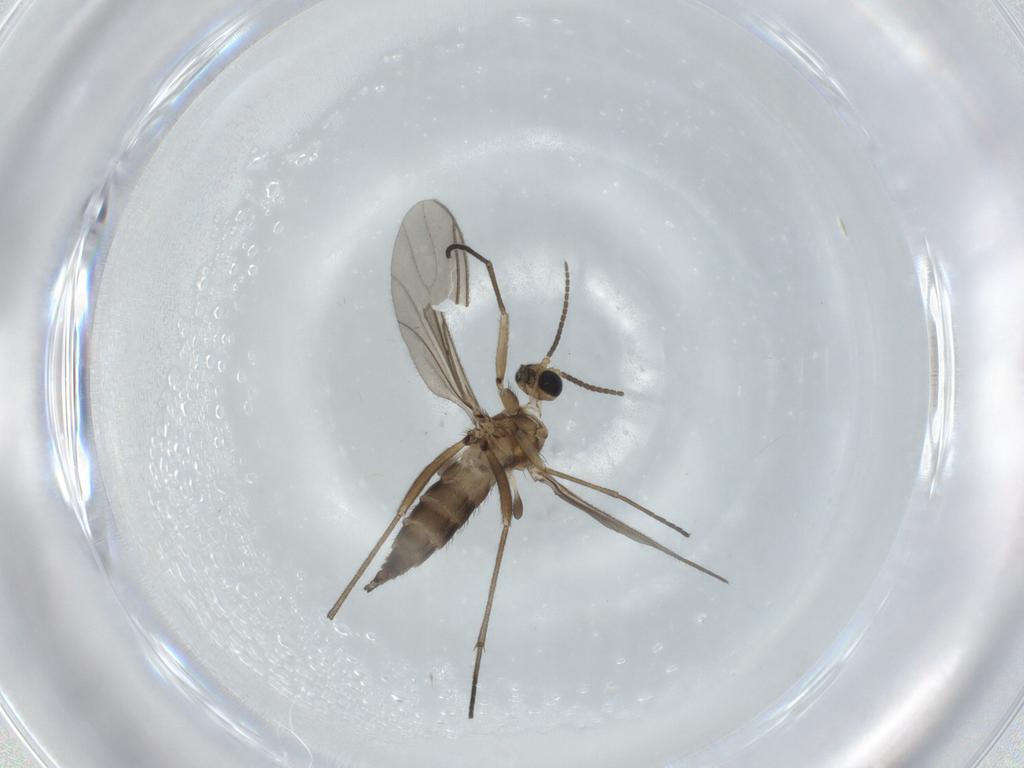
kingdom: Animalia
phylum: Arthropoda
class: Insecta
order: Diptera
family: Sciaridae
